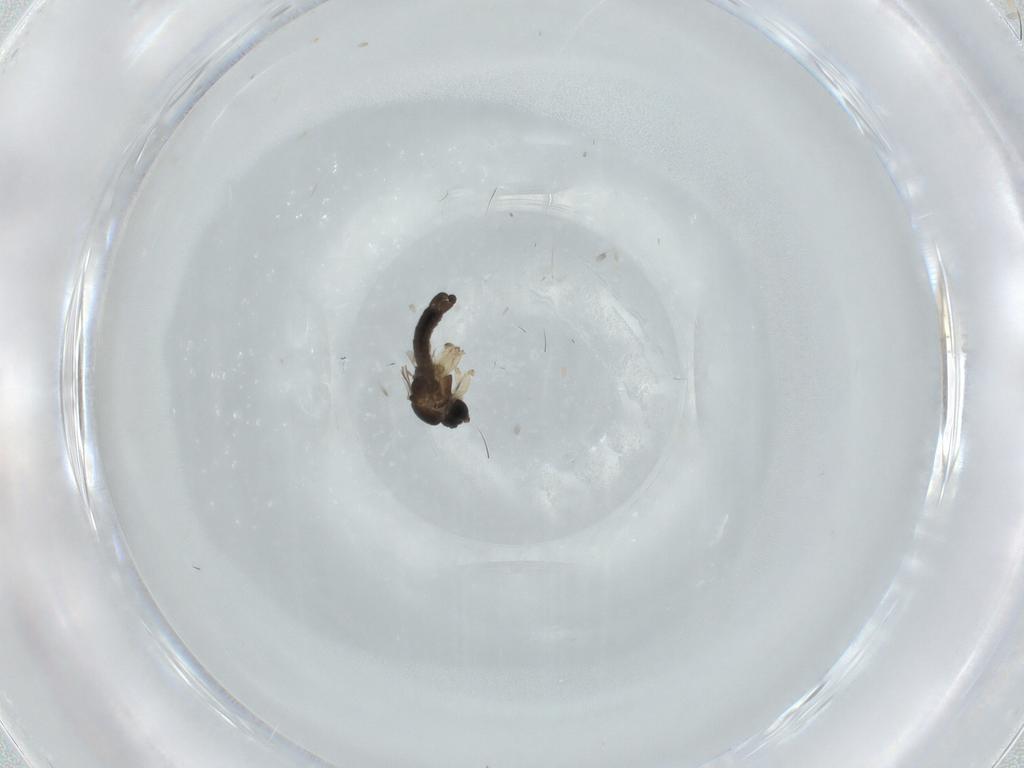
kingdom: Animalia
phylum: Arthropoda
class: Insecta
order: Diptera
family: Sciaridae
